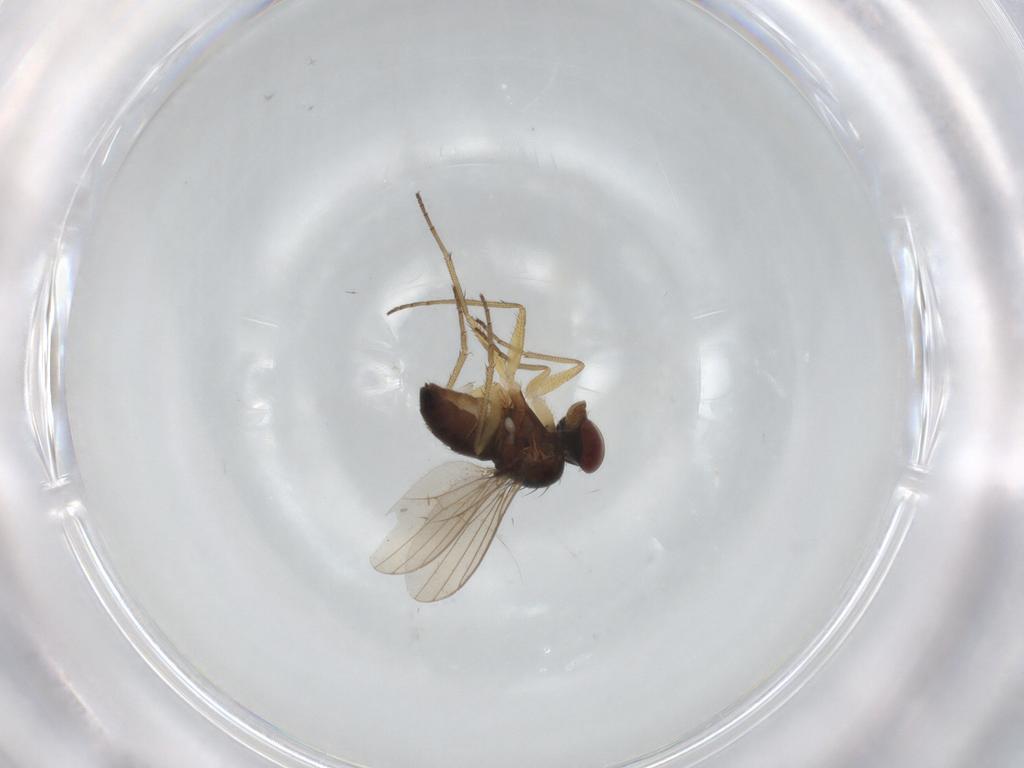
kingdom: Animalia
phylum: Arthropoda
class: Insecta
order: Diptera
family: Dolichopodidae
